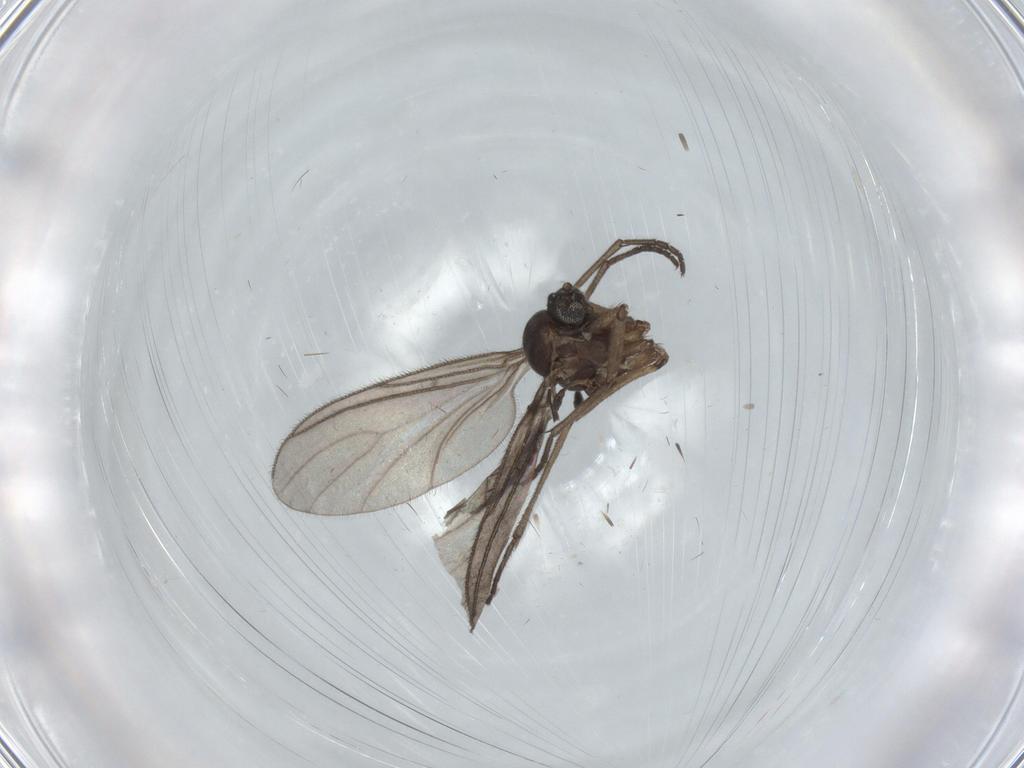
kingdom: Animalia
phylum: Arthropoda
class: Insecta
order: Diptera
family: Sciaridae
